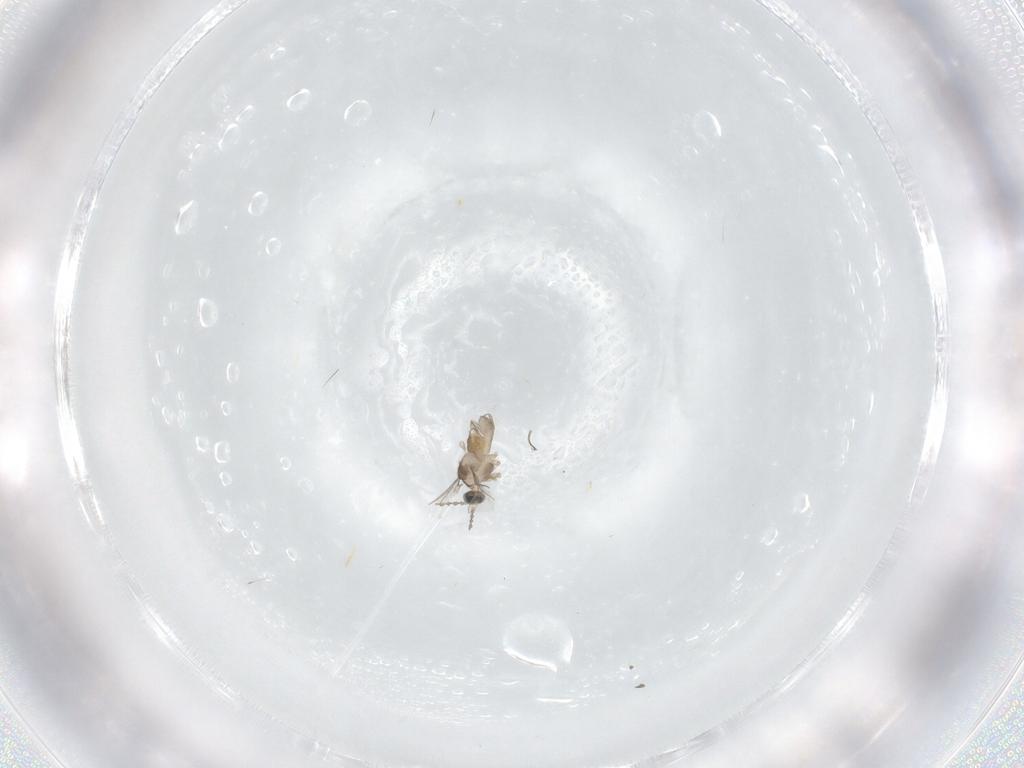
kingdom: Animalia
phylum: Arthropoda
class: Insecta
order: Diptera
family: Cecidomyiidae
